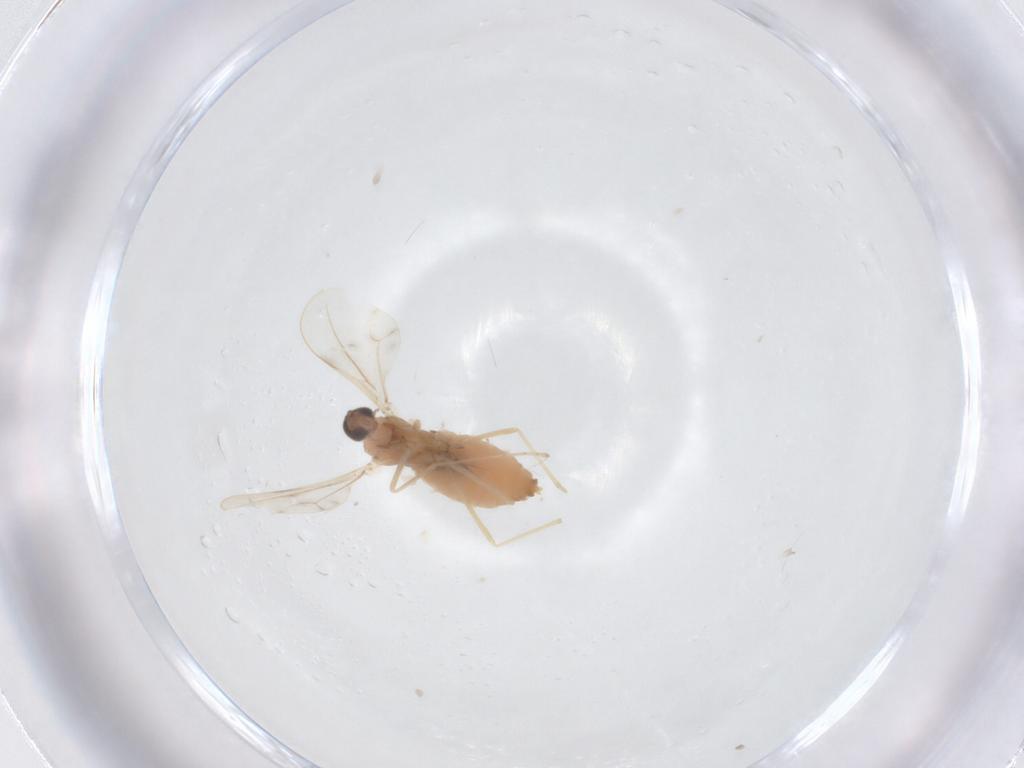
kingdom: Animalia
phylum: Arthropoda
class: Insecta
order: Diptera
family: Cecidomyiidae
